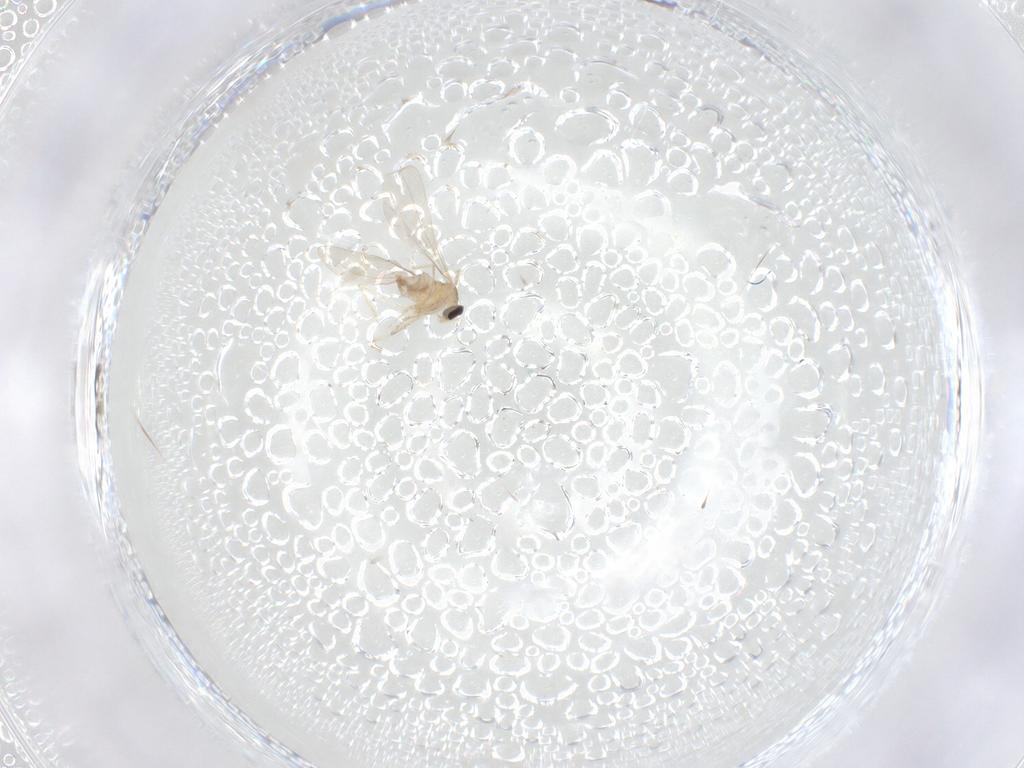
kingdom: Animalia
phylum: Arthropoda
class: Insecta
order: Diptera
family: Cecidomyiidae
